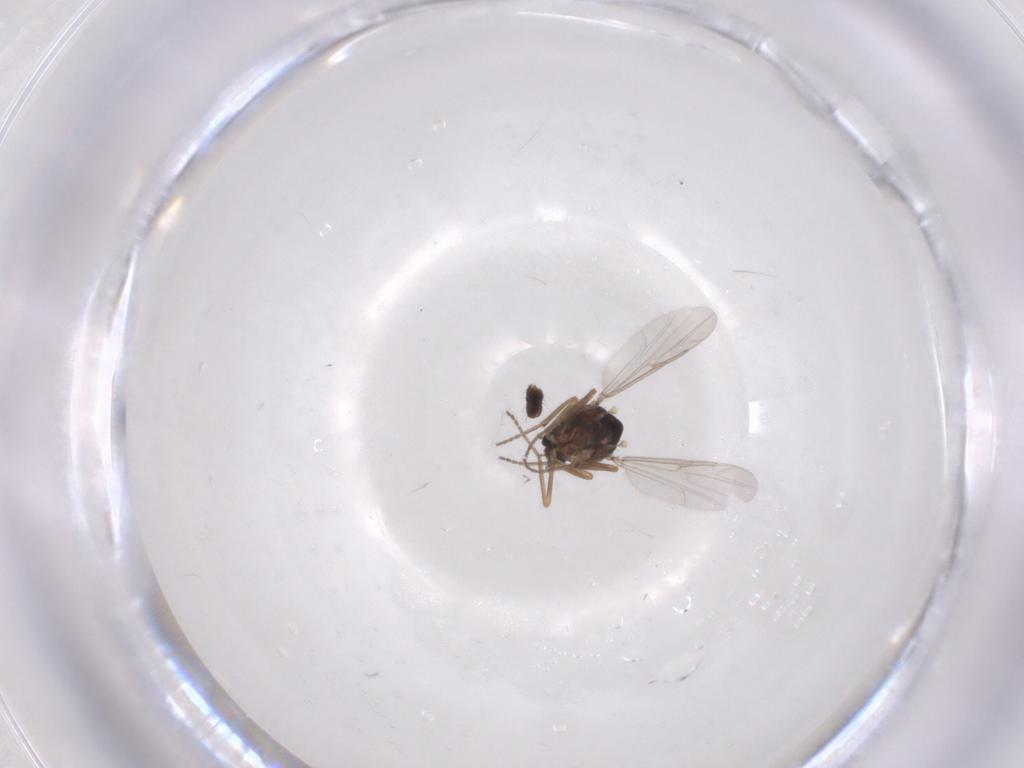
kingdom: Animalia
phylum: Arthropoda
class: Insecta
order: Diptera
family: Ceratopogonidae
